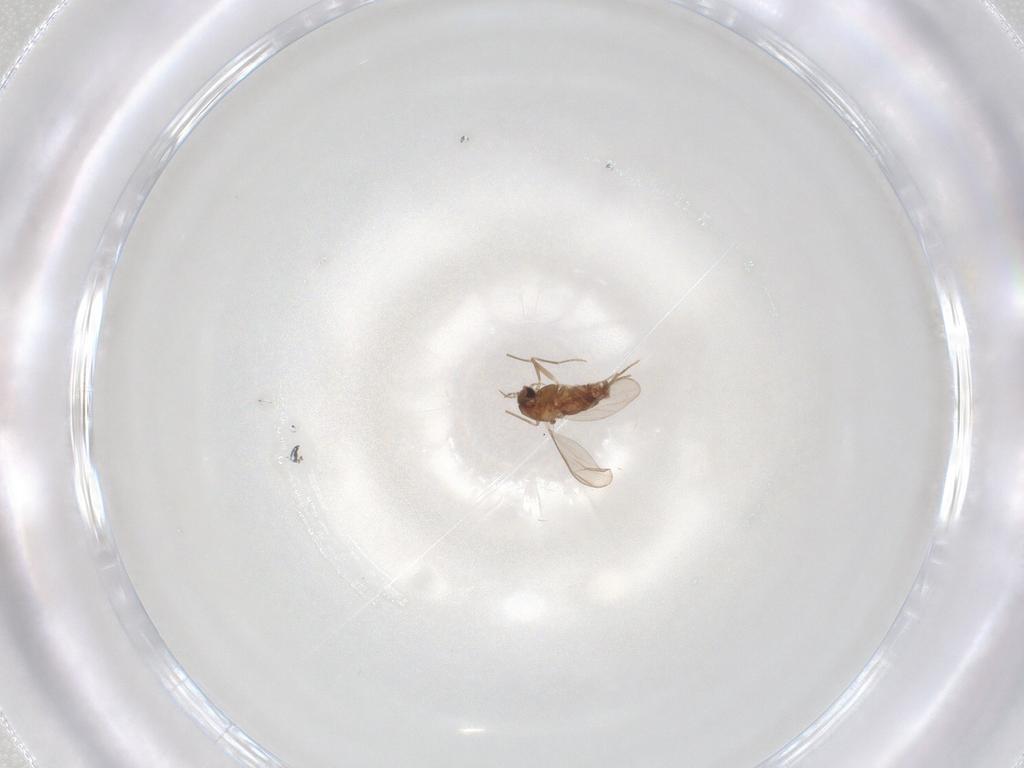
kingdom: Animalia
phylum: Arthropoda
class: Insecta
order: Diptera
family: Chironomidae
